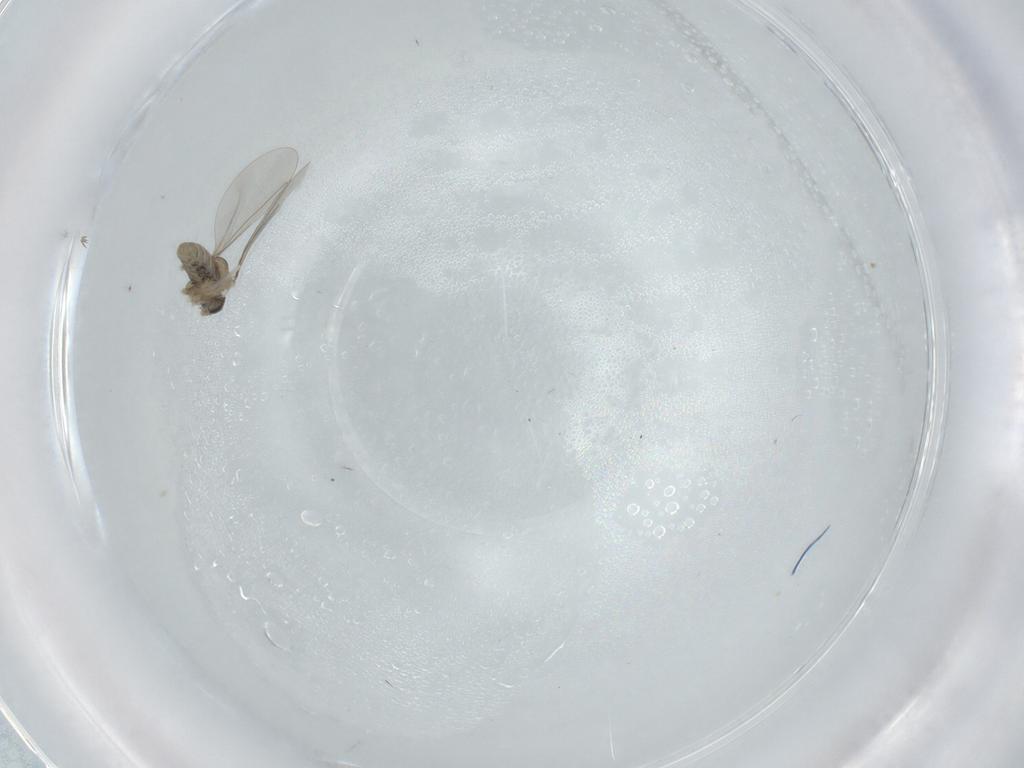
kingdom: Animalia
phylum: Arthropoda
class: Insecta
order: Diptera
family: Cecidomyiidae
